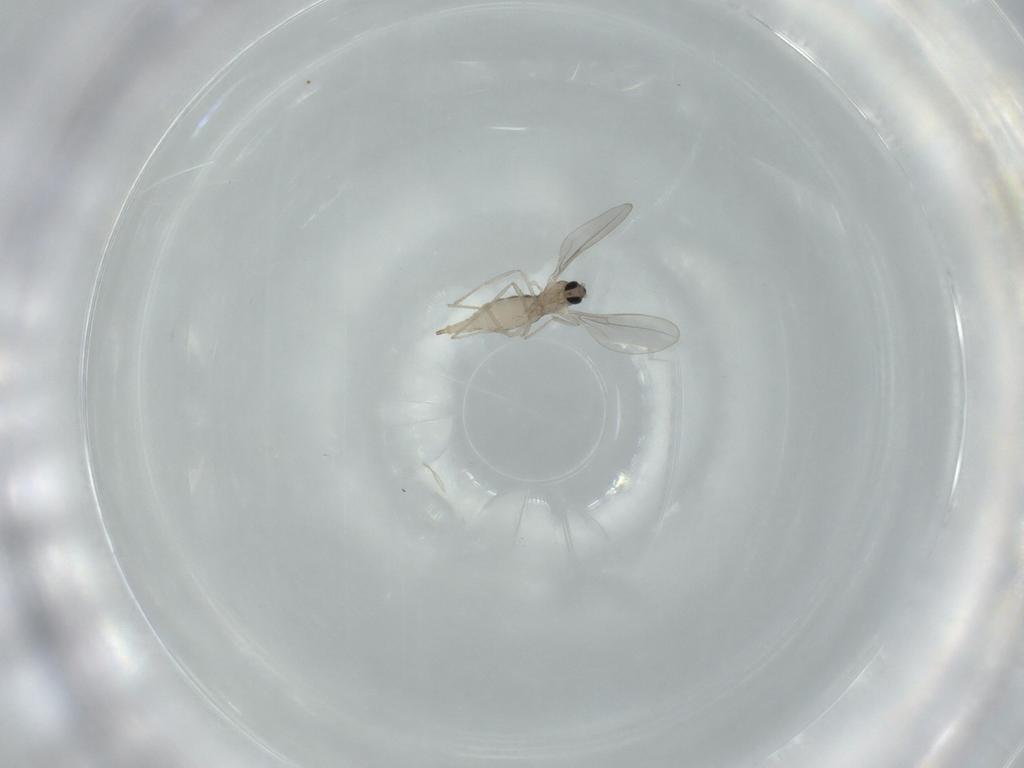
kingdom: Animalia
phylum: Arthropoda
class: Insecta
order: Diptera
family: Cecidomyiidae
